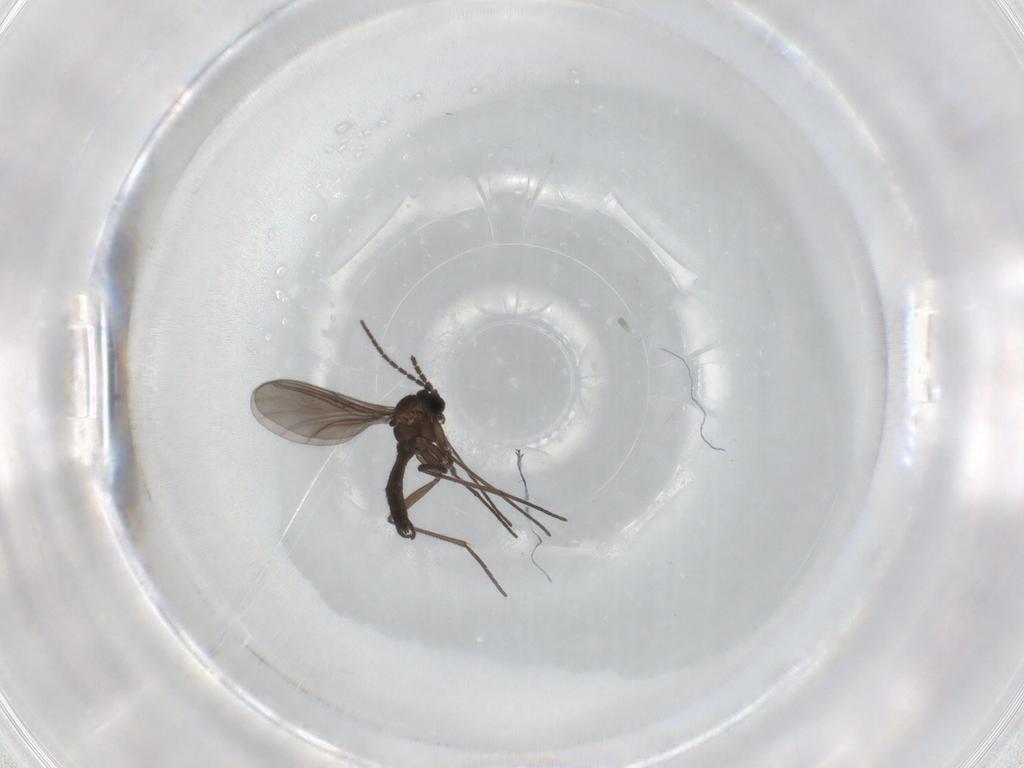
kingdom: Animalia
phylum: Arthropoda
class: Insecta
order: Diptera
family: Sciaridae
